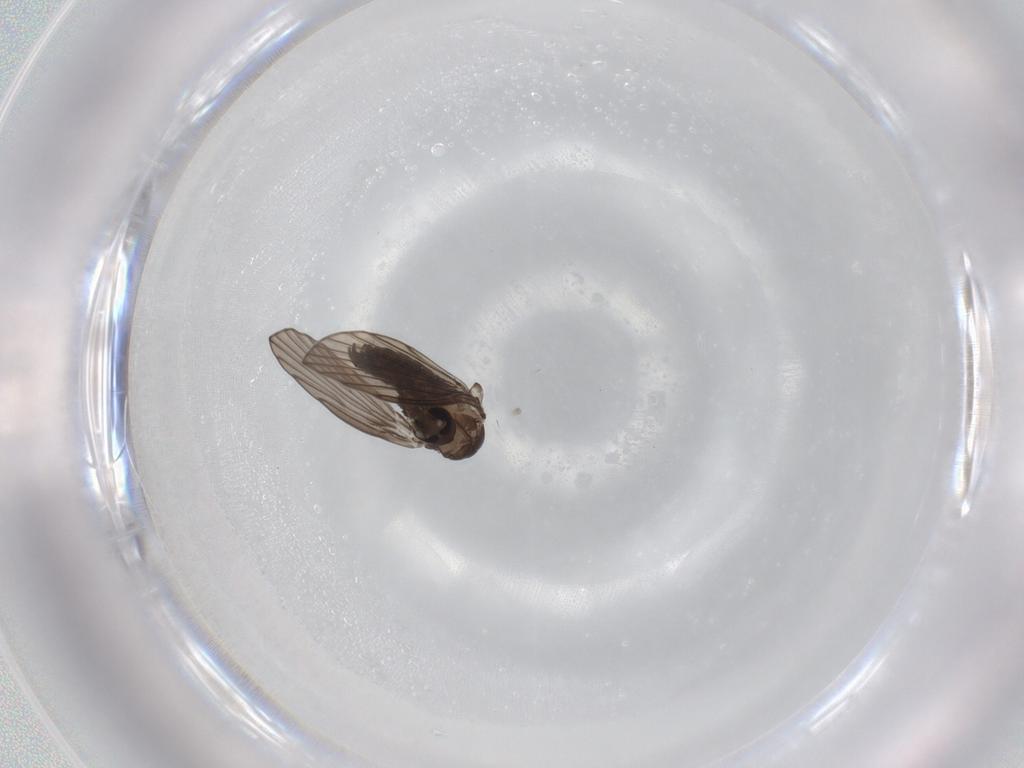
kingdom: Animalia
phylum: Arthropoda
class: Insecta
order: Diptera
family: Psychodidae
